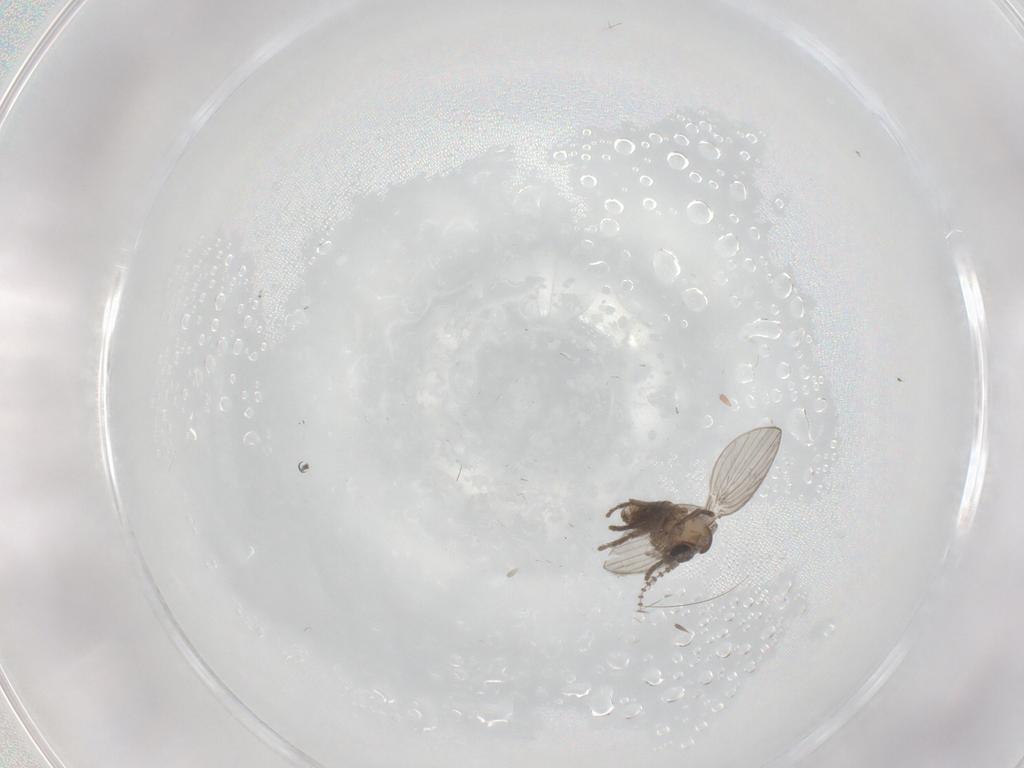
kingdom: Animalia
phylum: Arthropoda
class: Insecta
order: Diptera
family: Psychodidae
